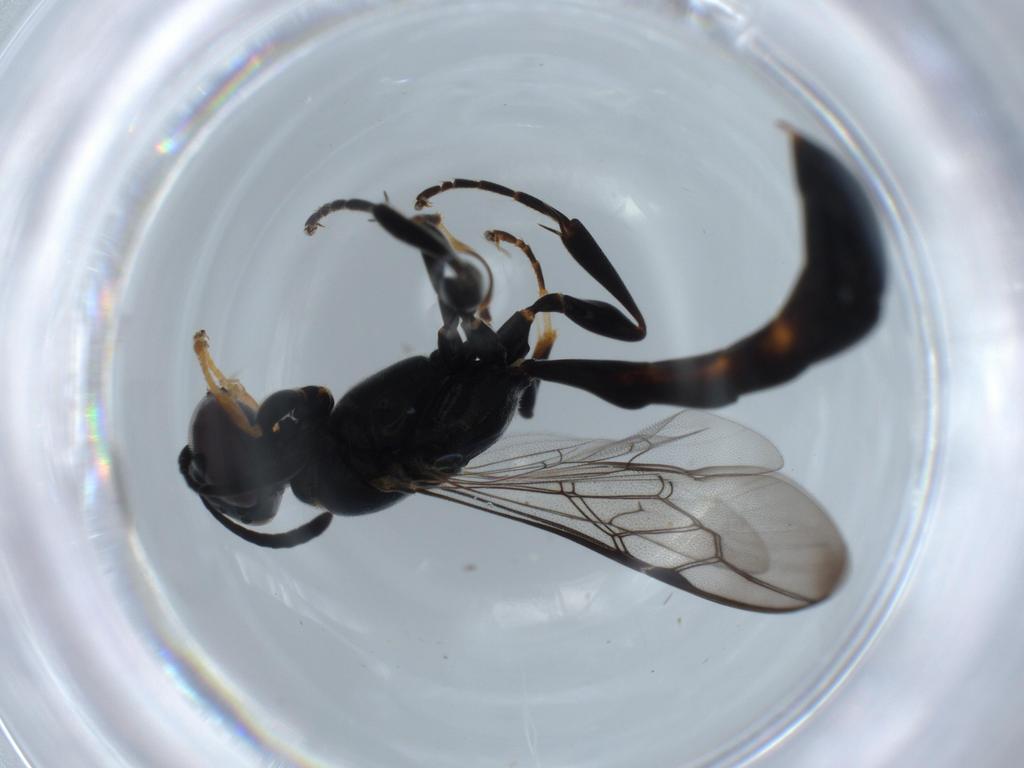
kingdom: Animalia
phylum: Arthropoda
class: Insecta
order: Hymenoptera
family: Crabronidae
